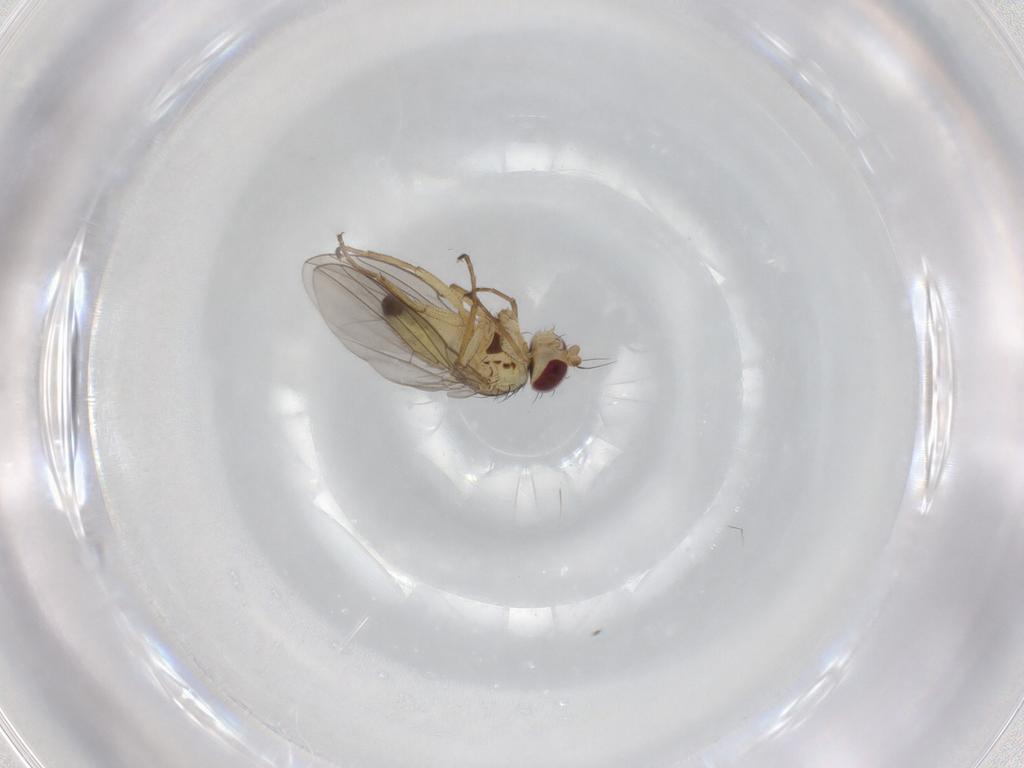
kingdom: Animalia
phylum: Arthropoda
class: Insecta
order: Diptera
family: Agromyzidae
